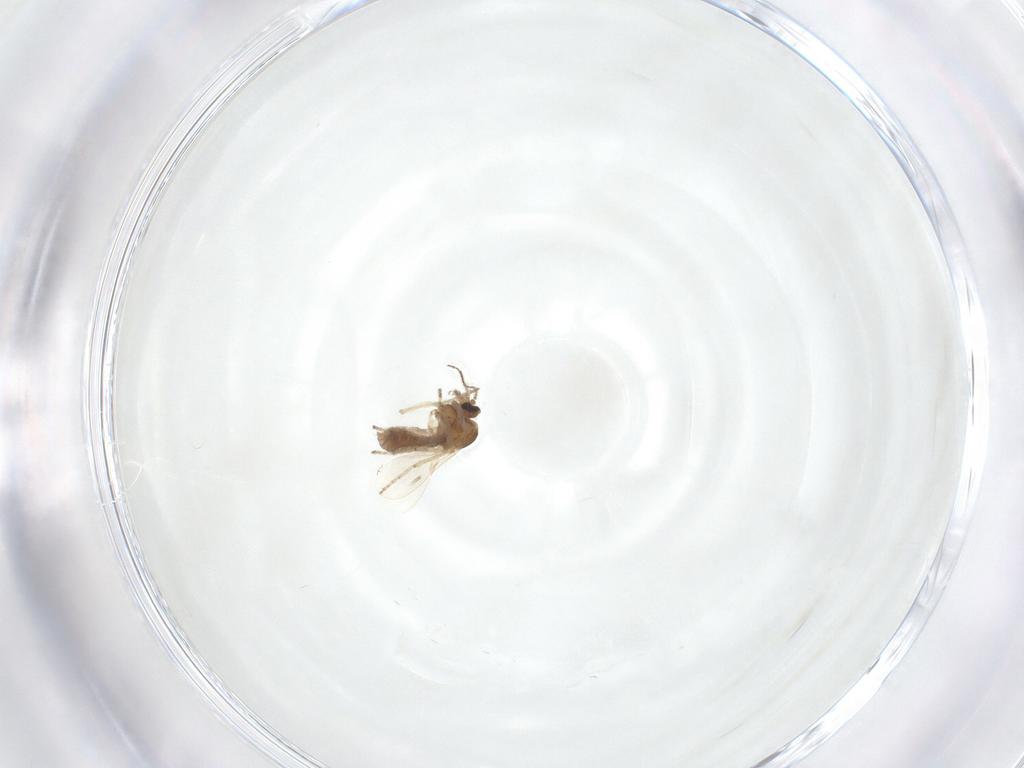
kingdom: Animalia
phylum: Arthropoda
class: Insecta
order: Diptera
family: Ceratopogonidae
